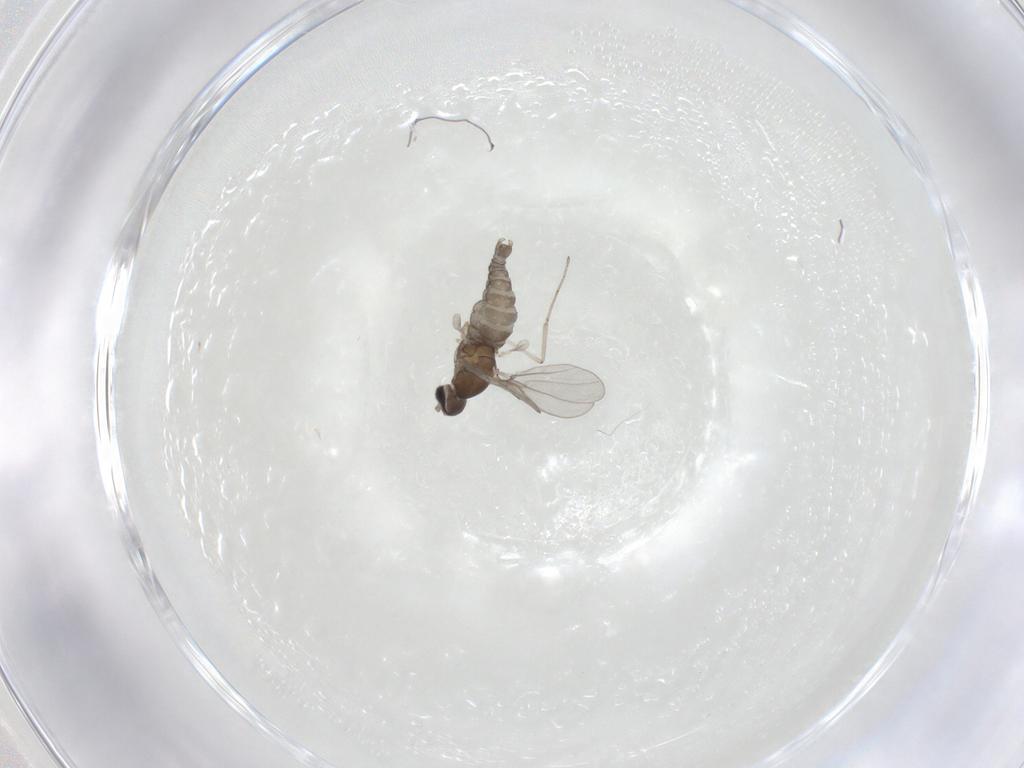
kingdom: Animalia
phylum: Arthropoda
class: Insecta
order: Diptera
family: Cecidomyiidae
